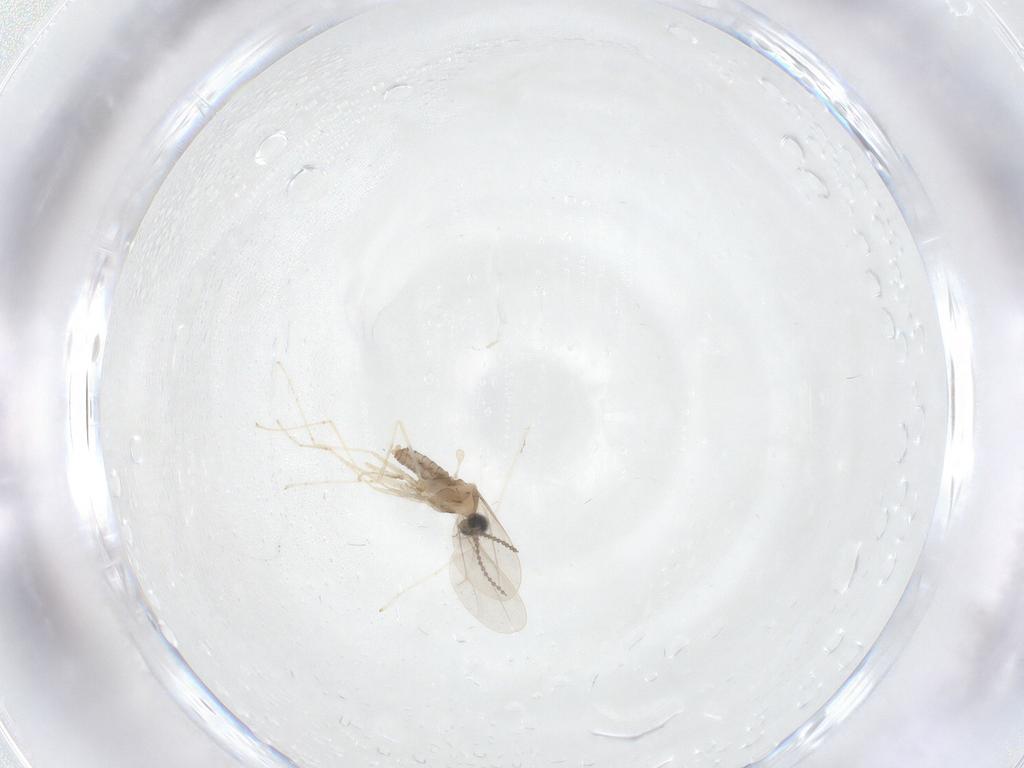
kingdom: Animalia
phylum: Arthropoda
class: Insecta
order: Diptera
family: Cecidomyiidae
